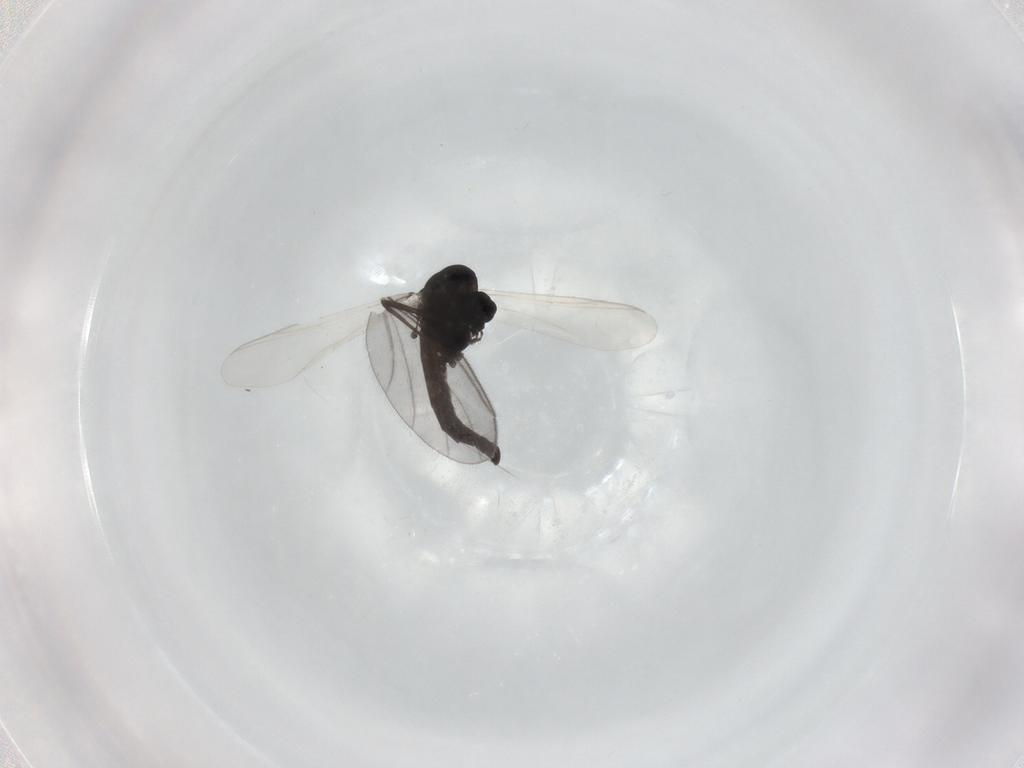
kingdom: Animalia
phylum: Arthropoda
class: Insecta
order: Diptera
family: Sciaridae
